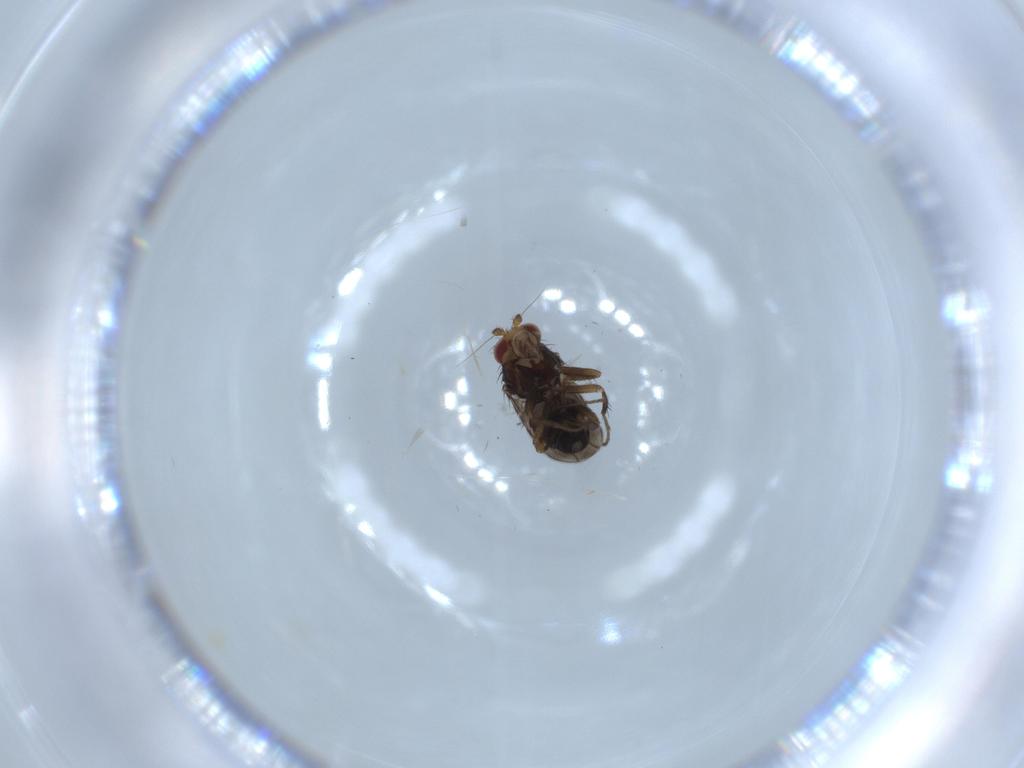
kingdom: Animalia
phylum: Arthropoda
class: Insecta
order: Diptera
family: Sphaeroceridae
